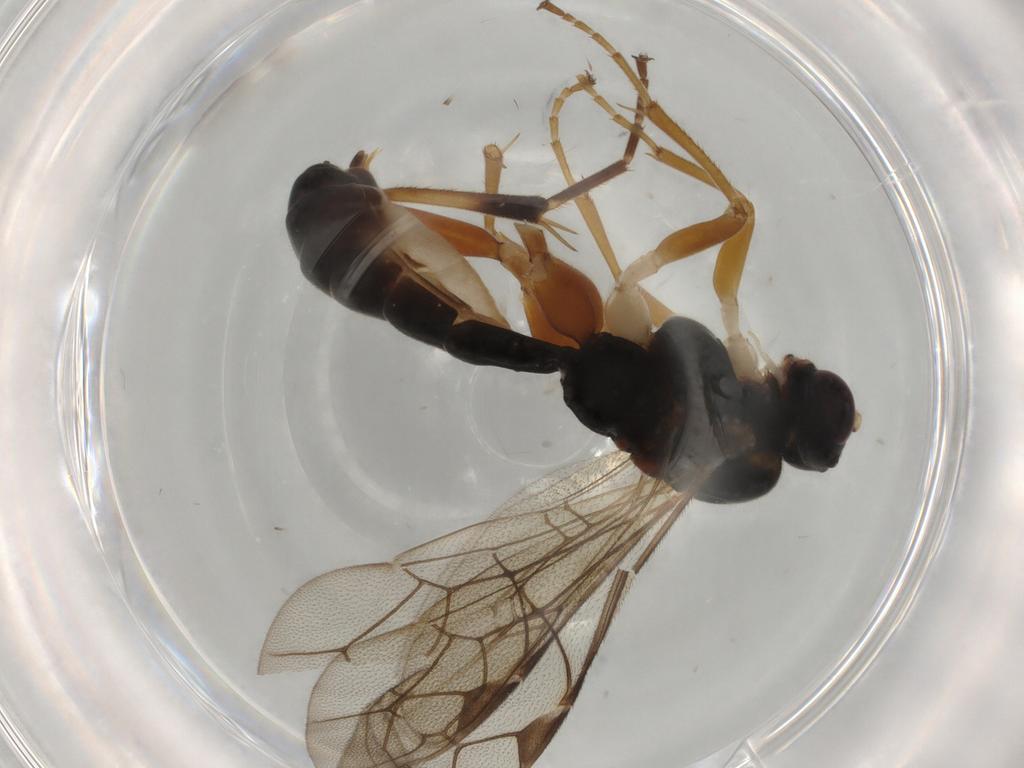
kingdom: Animalia
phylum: Arthropoda
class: Insecta
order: Hymenoptera
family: Ichneumonidae
